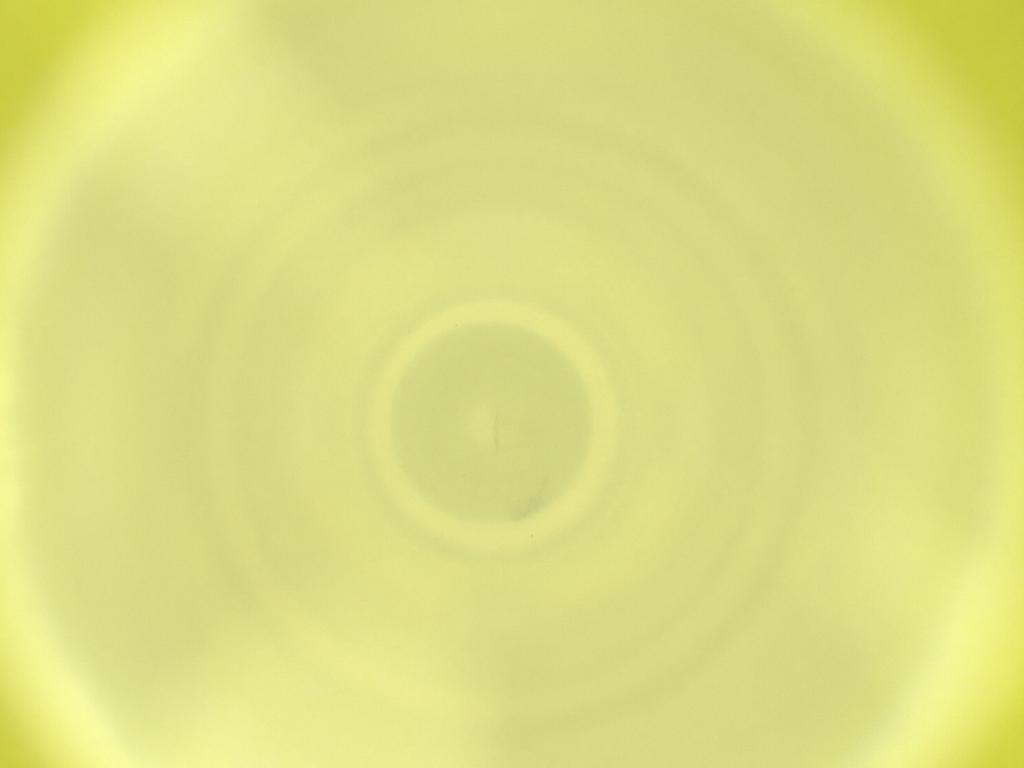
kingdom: Animalia
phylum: Arthropoda
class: Insecta
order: Diptera
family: Cecidomyiidae
